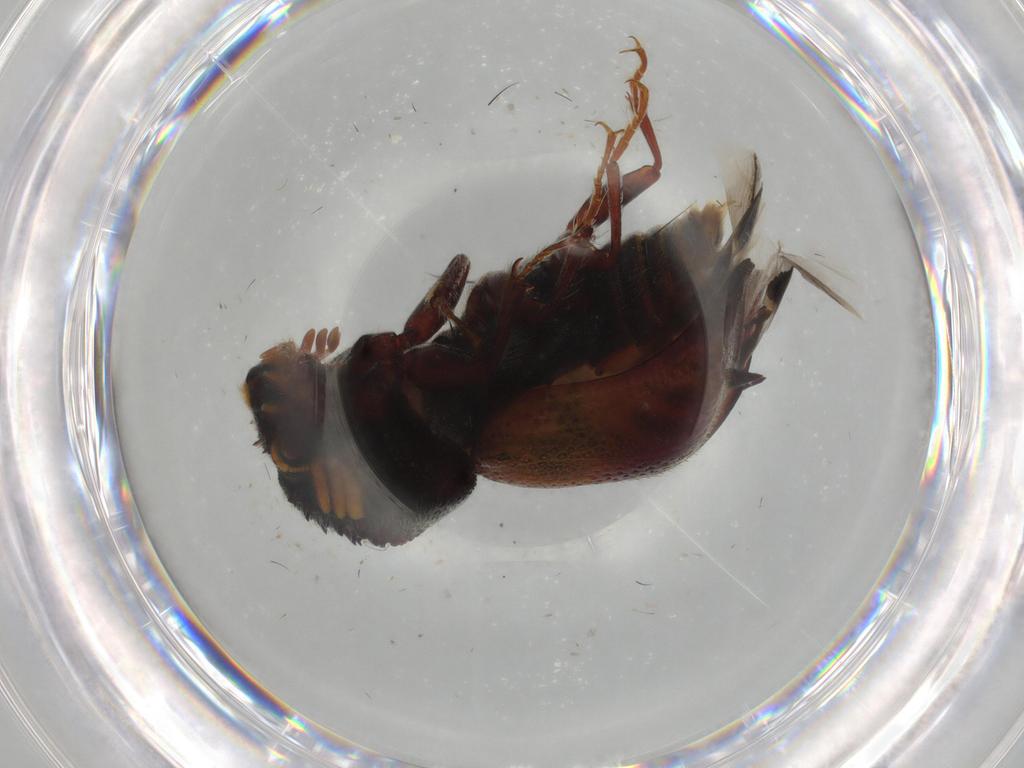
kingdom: Animalia
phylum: Arthropoda
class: Insecta
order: Coleoptera
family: Bostrichidae
